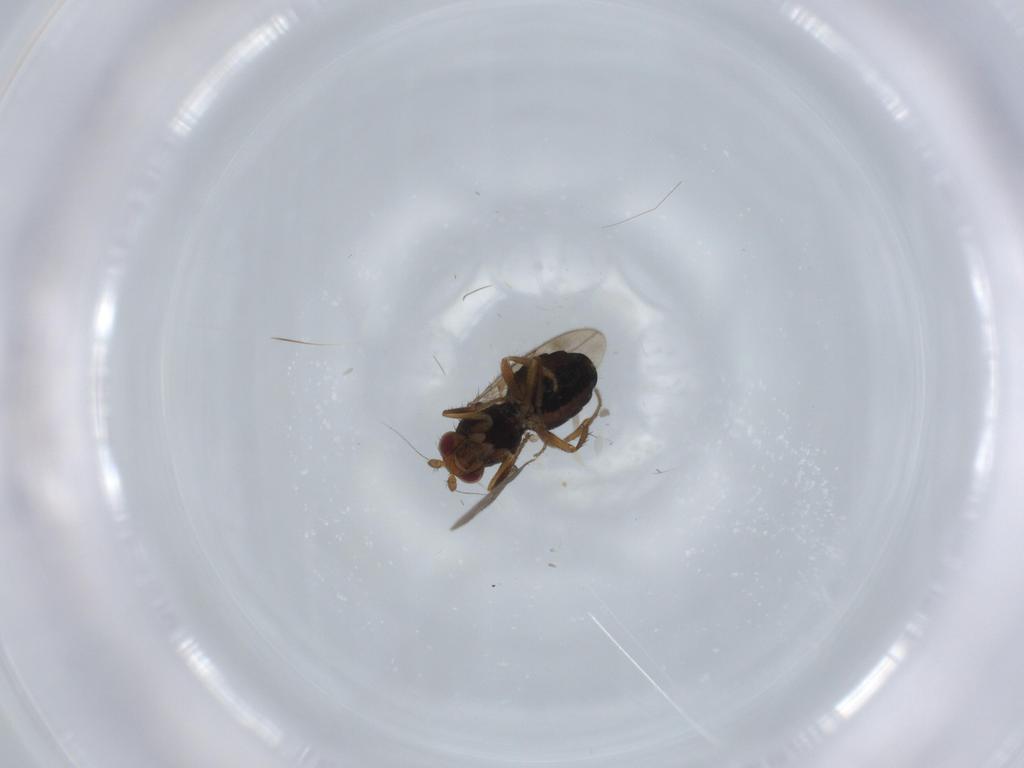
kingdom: Animalia
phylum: Arthropoda
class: Insecta
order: Diptera
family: Sphaeroceridae
